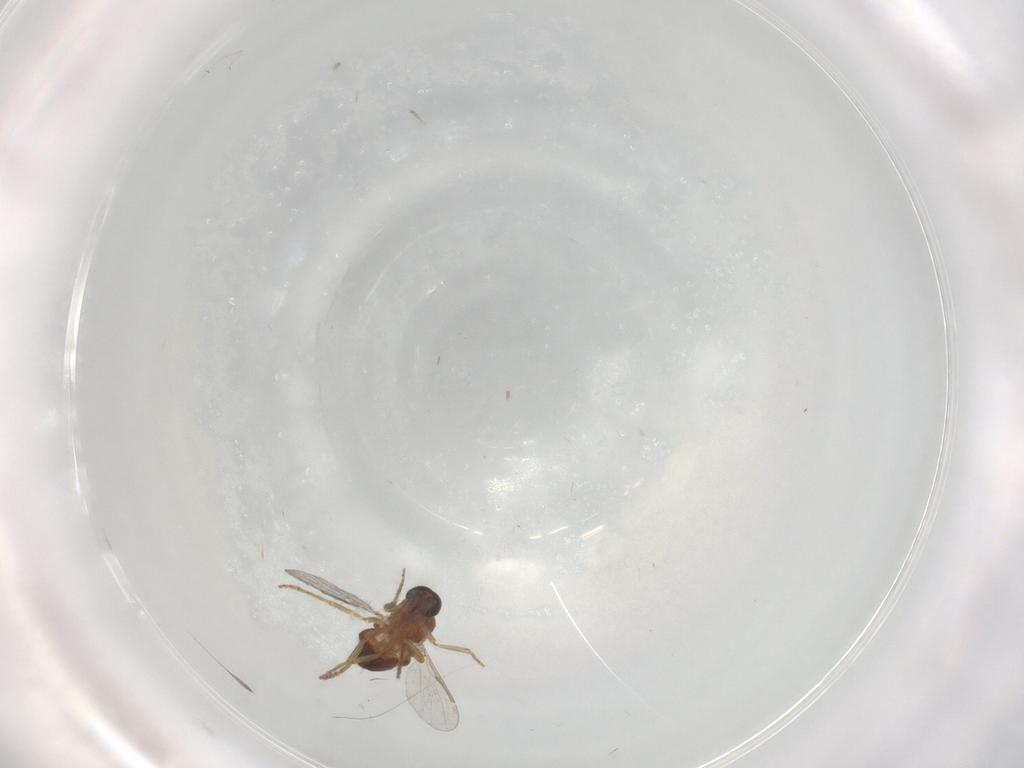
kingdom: Animalia
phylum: Arthropoda
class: Insecta
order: Diptera
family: Ceratopogonidae
